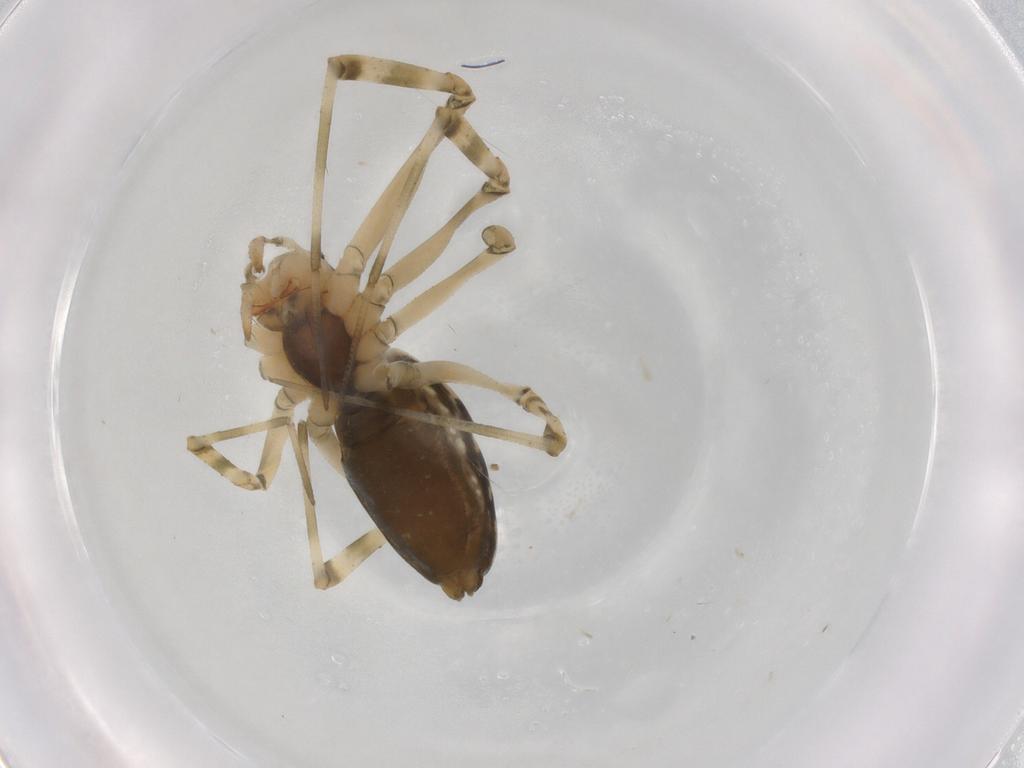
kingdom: Animalia
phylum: Arthropoda
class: Arachnida
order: Araneae
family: Linyphiidae
